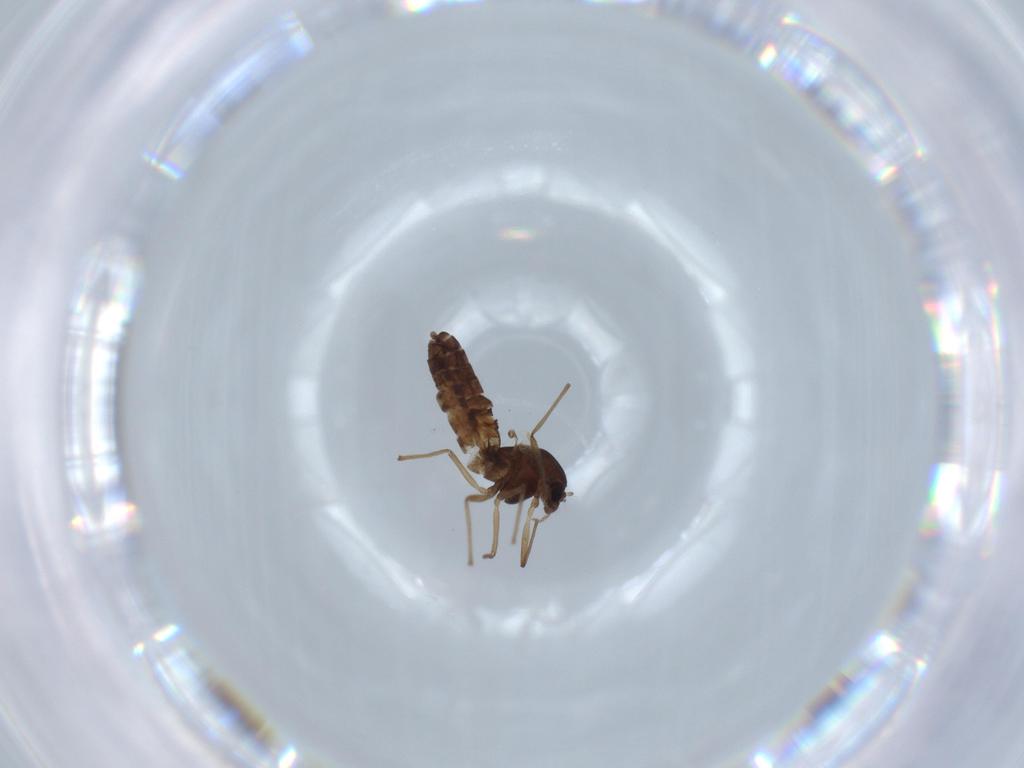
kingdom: Animalia
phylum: Arthropoda
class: Insecta
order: Diptera
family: Chironomidae
